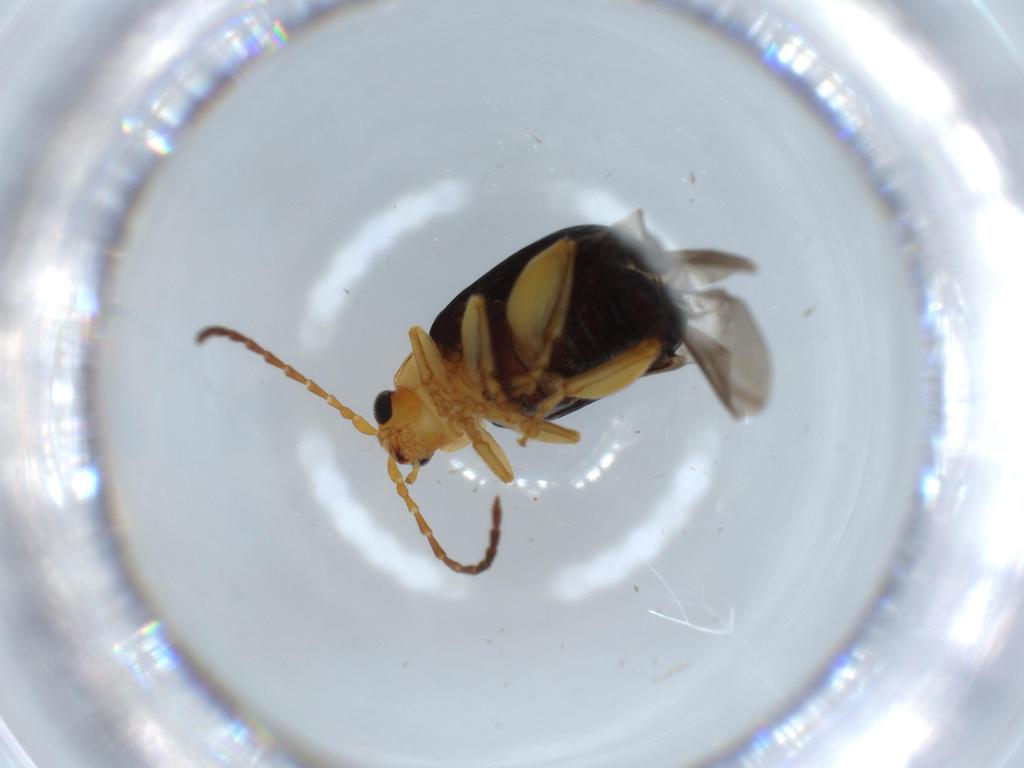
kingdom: Animalia
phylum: Arthropoda
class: Insecta
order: Coleoptera
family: Chrysomelidae
